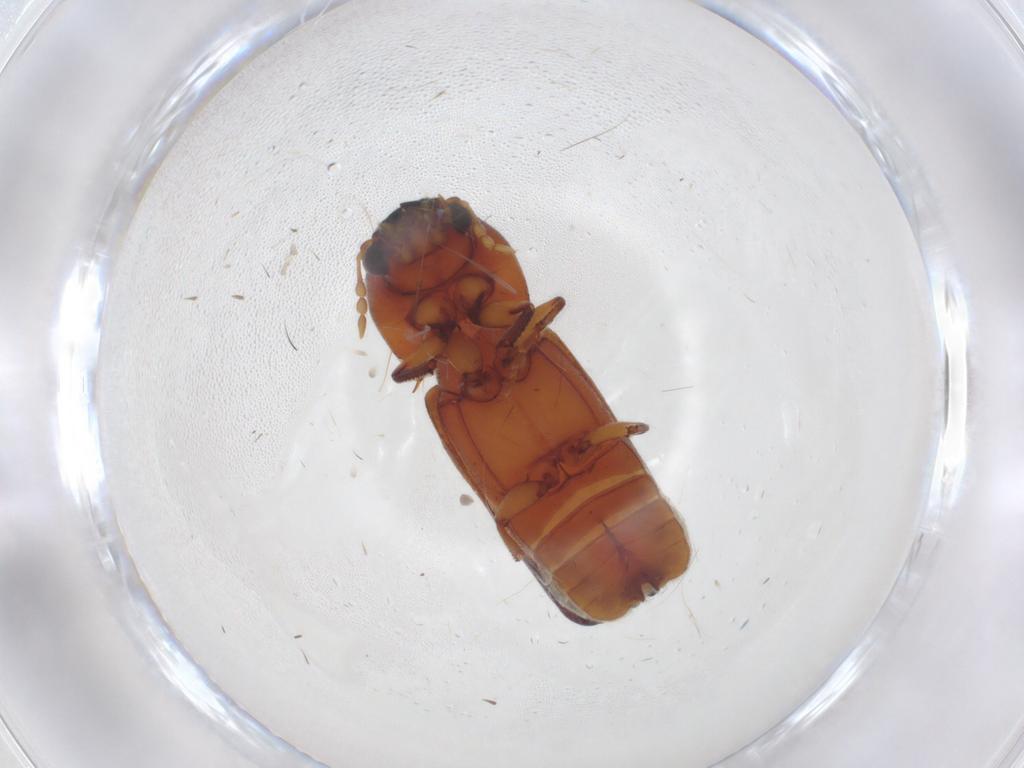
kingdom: Animalia
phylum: Arthropoda
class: Insecta
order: Coleoptera
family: Bostrichidae
